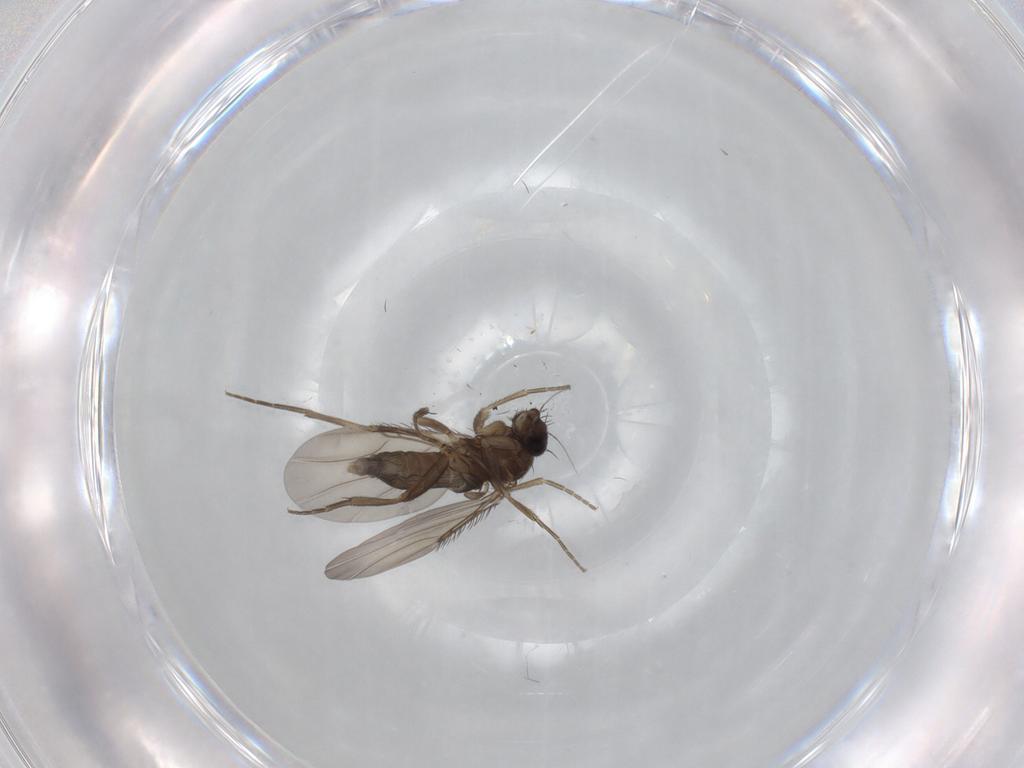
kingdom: Animalia
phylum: Arthropoda
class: Insecta
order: Diptera
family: Phoridae
